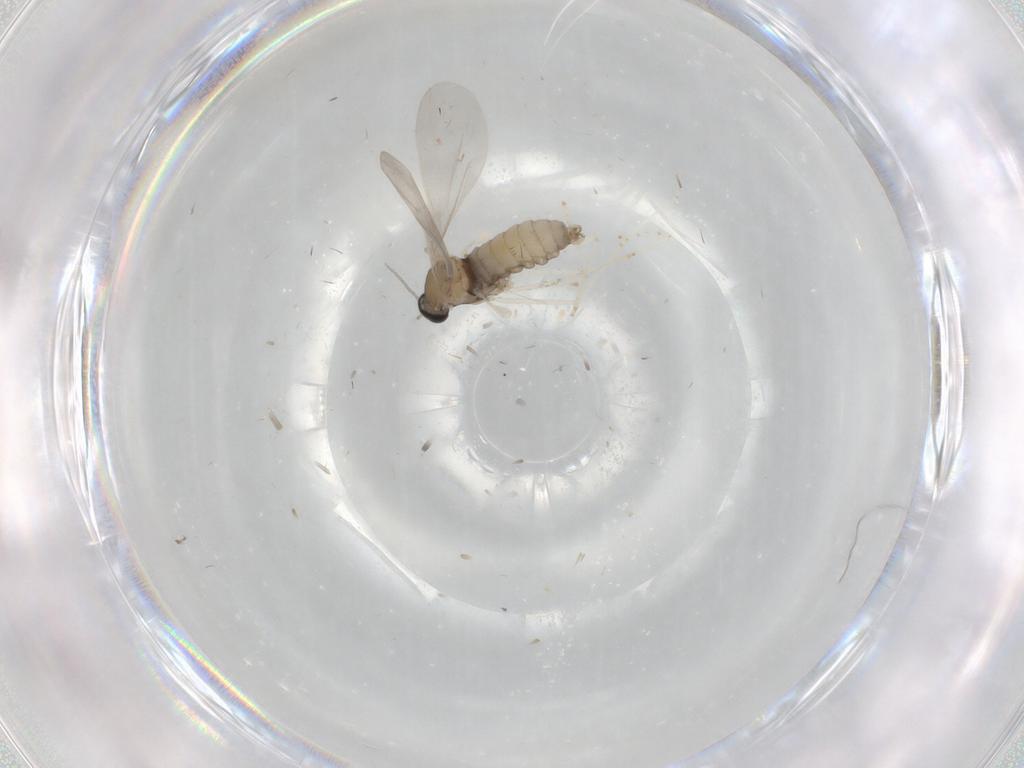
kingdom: Animalia
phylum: Arthropoda
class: Insecta
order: Diptera
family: Cecidomyiidae
